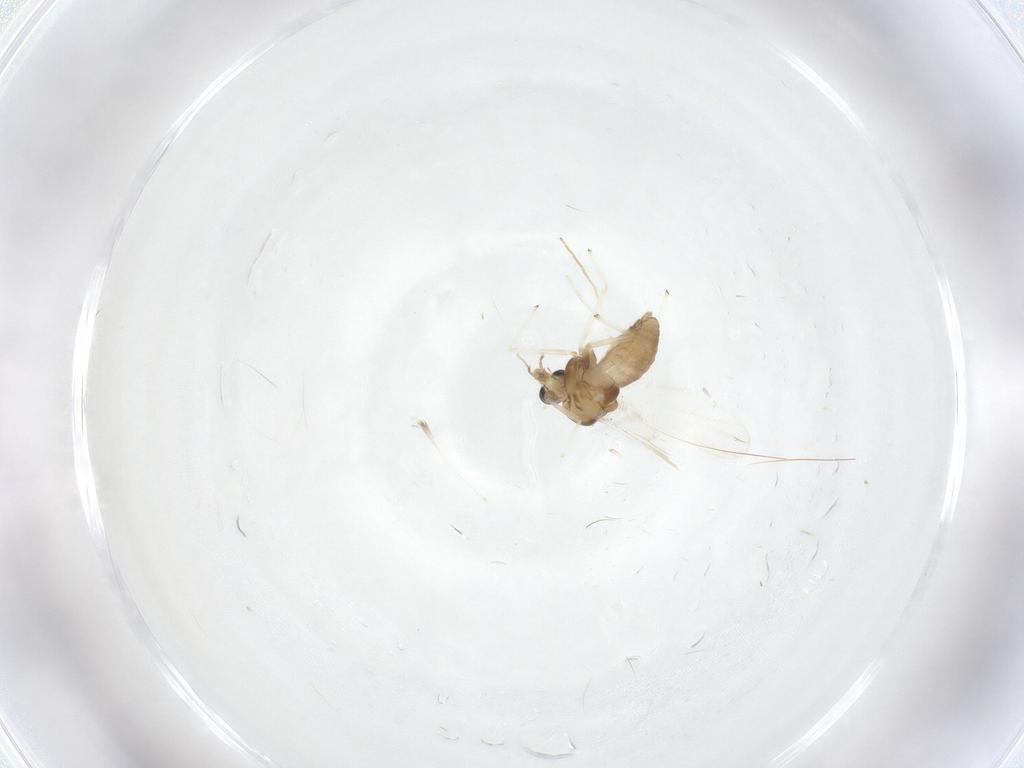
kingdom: Animalia
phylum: Arthropoda
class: Insecta
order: Diptera
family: Chironomidae
